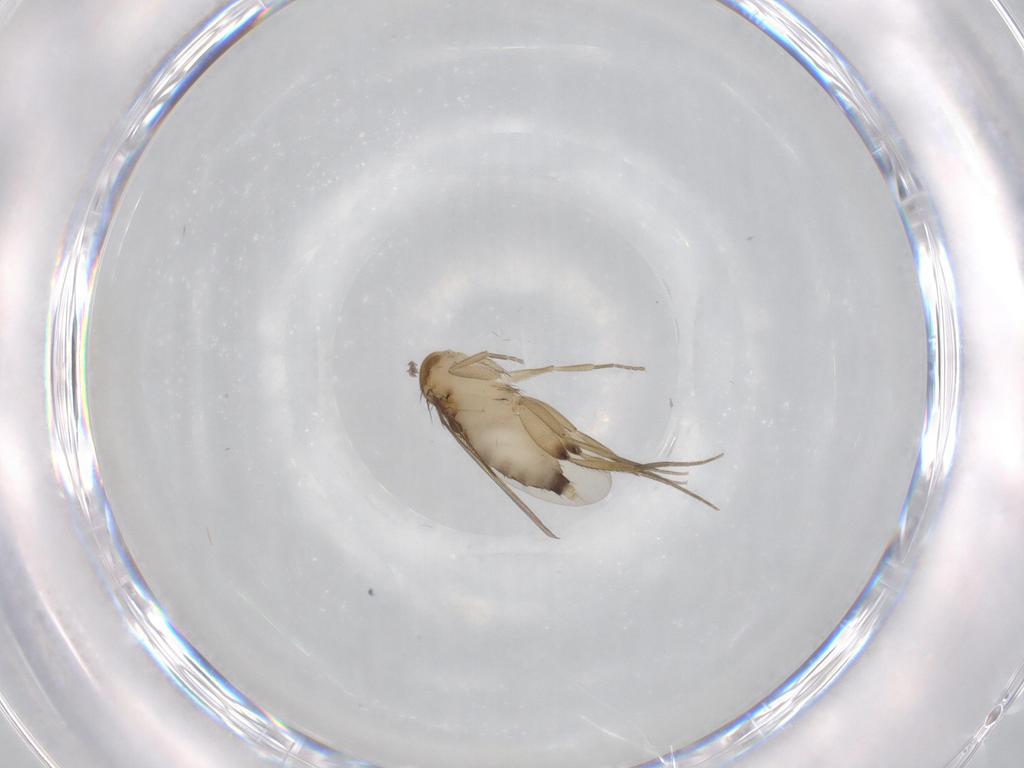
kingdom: Animalia
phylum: Arthropoda
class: Insecta
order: Diptera
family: Phoridae
